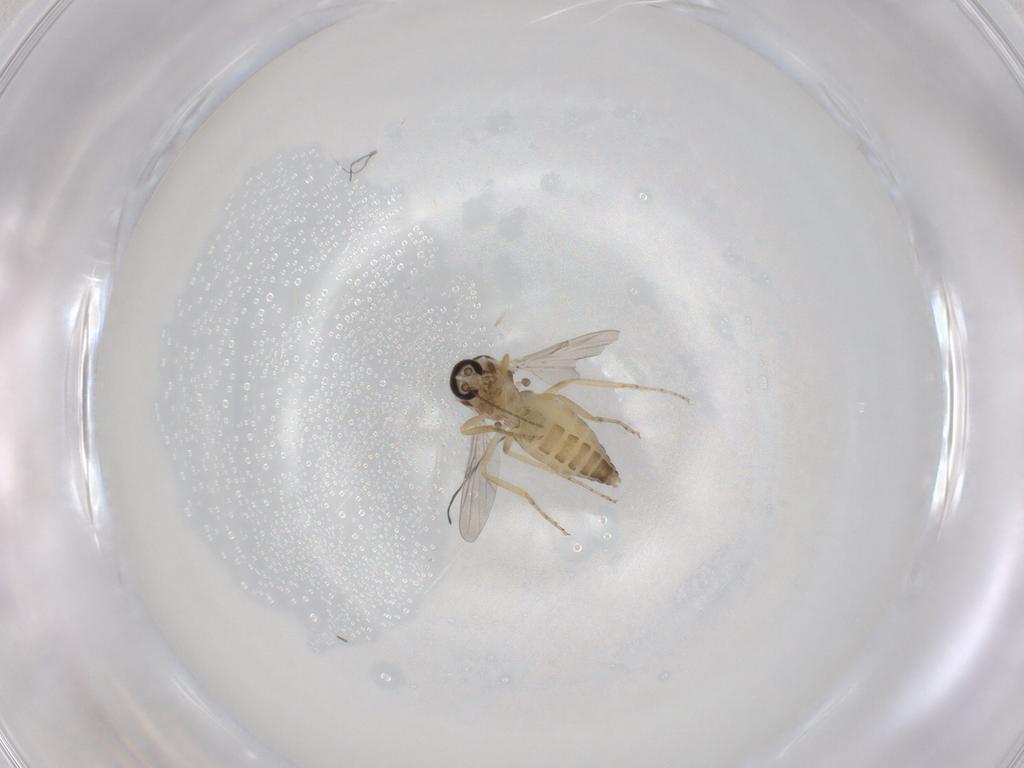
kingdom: Animalia
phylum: Arthropoda
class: Insecta
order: Diptera
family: Ceratopogonidae
